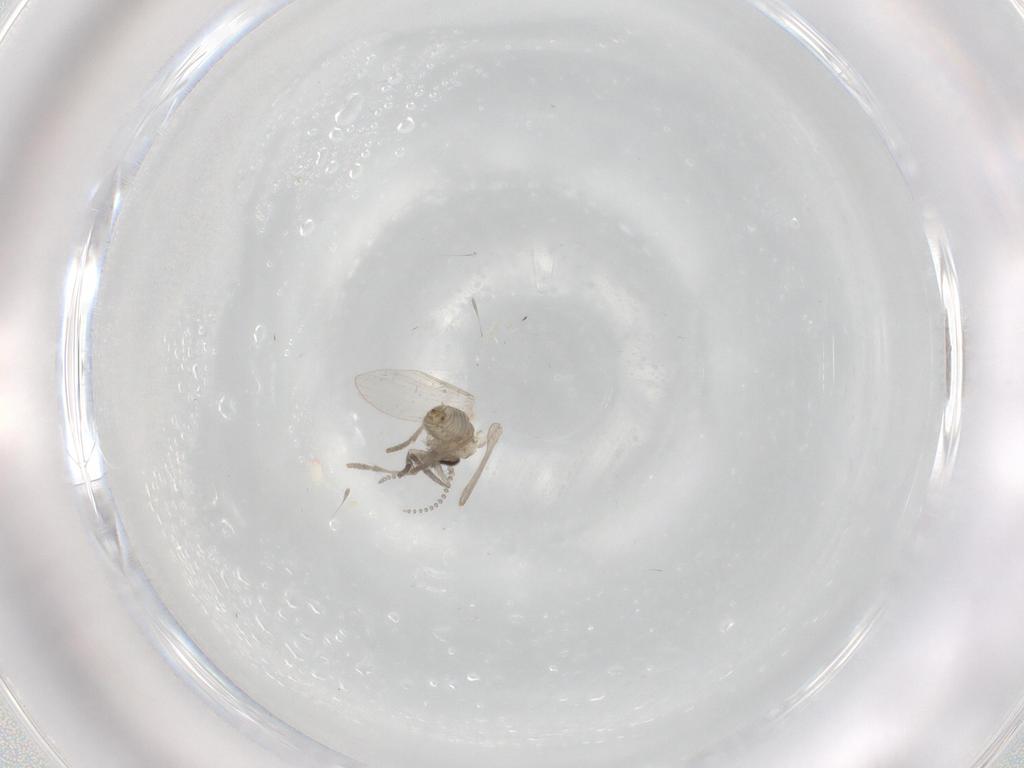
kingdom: Animalia
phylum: Arthropoda
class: Insecta
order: Diptera
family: Psychodidae
